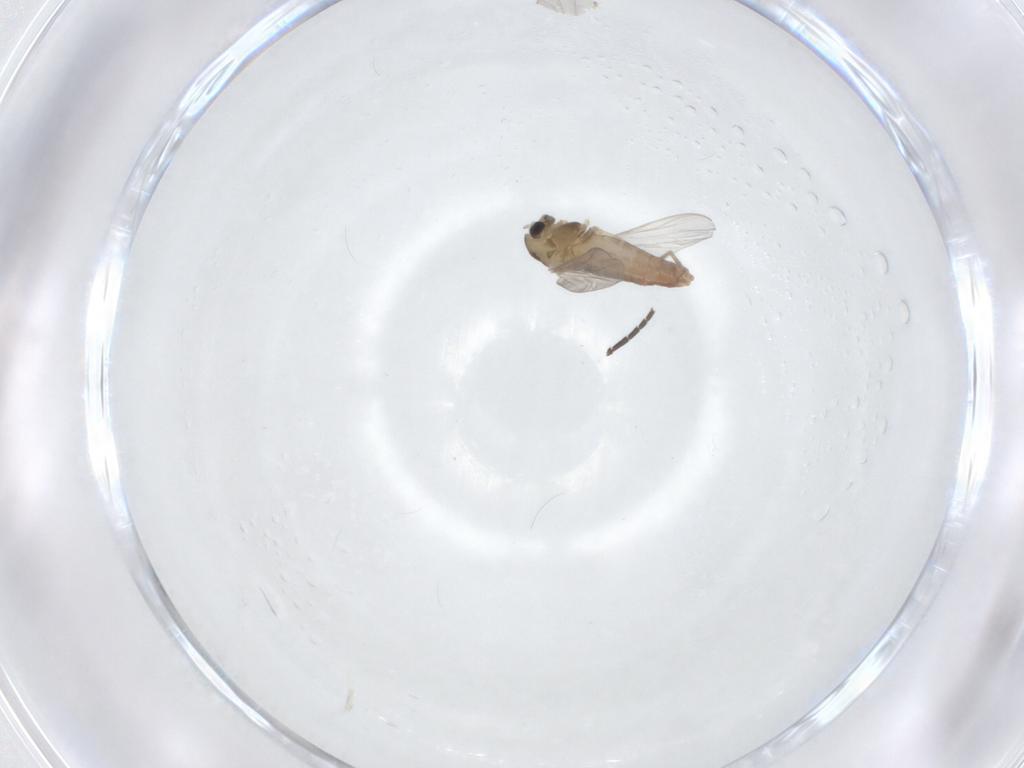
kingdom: Animalia
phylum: Arthropoda
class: Insecta
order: Diptera
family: Chironomidae
